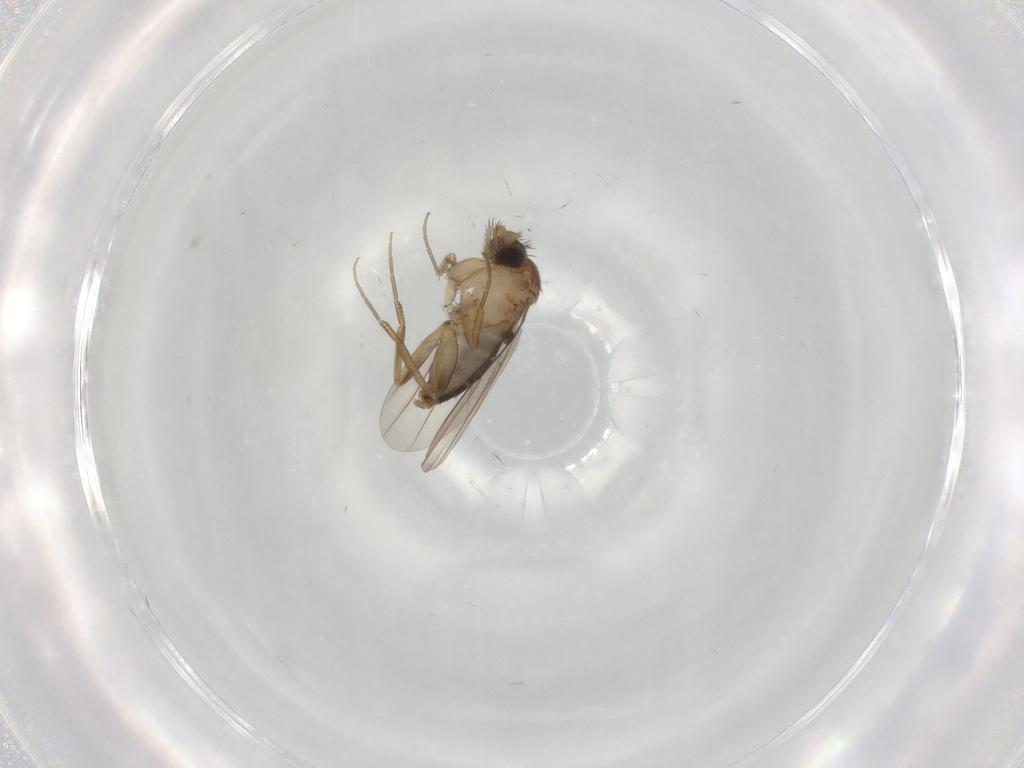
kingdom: Animalia
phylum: Arthropoda
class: Insecta
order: Diptera
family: Phoridae
